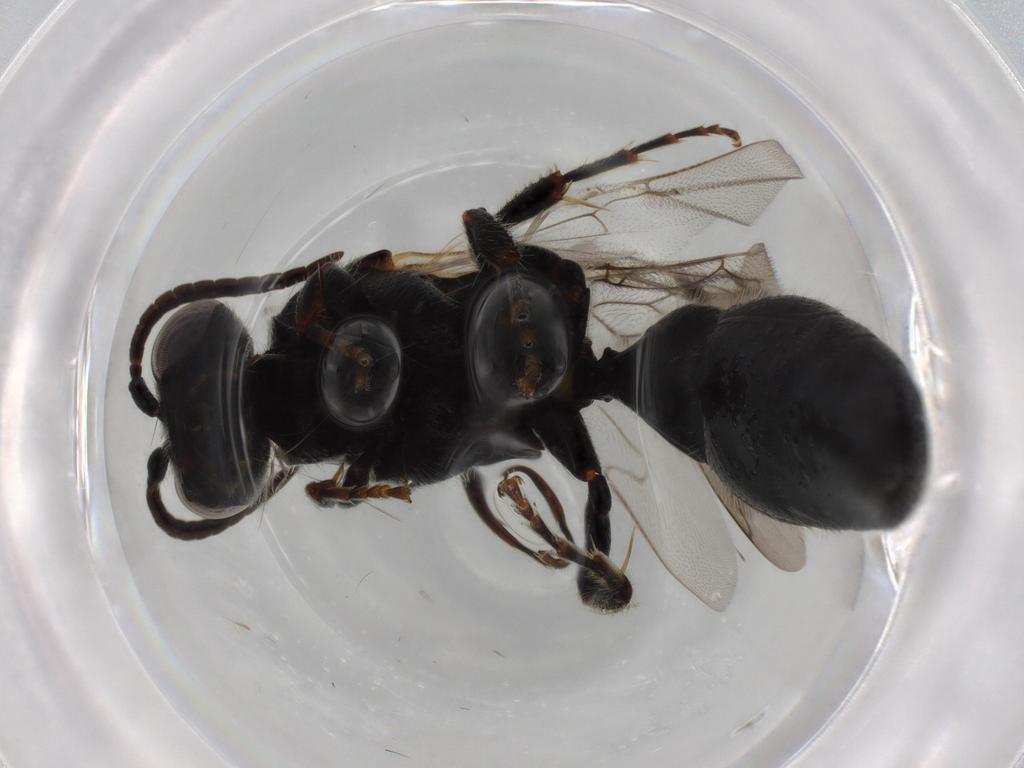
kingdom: Animalia
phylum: Arthropoda
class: Insecta
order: Hymenoptera
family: Tiphiidae
